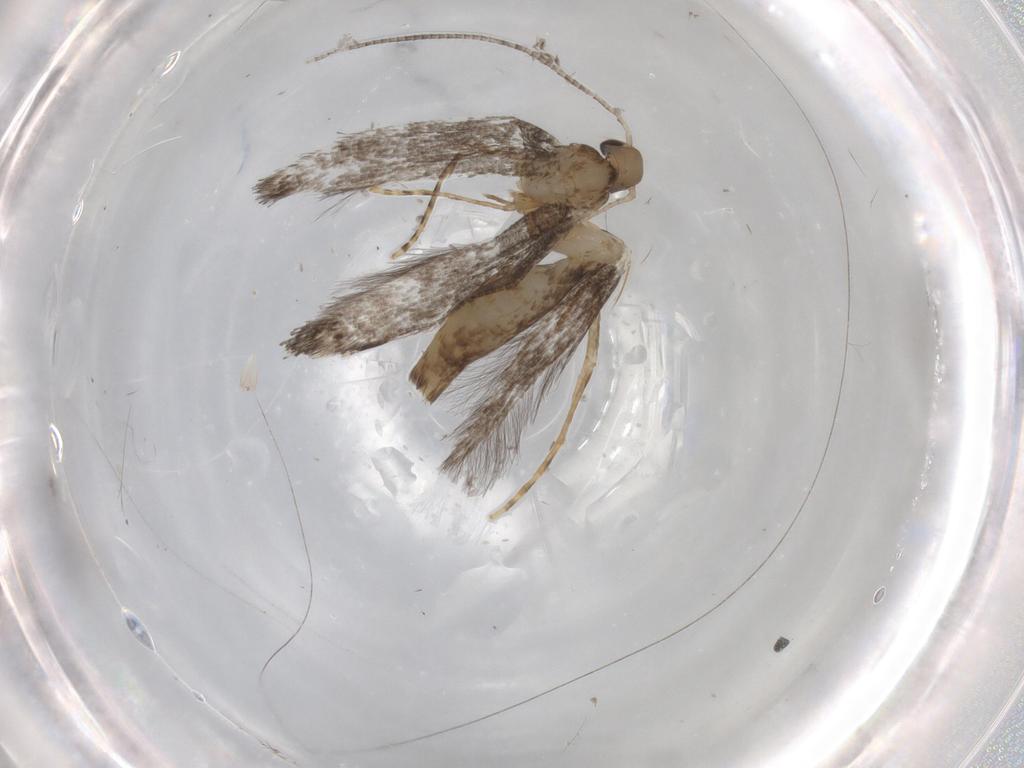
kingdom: Animalia
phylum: Arthropoda
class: Insecta
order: Lepidoptera
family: Gracillariidae
